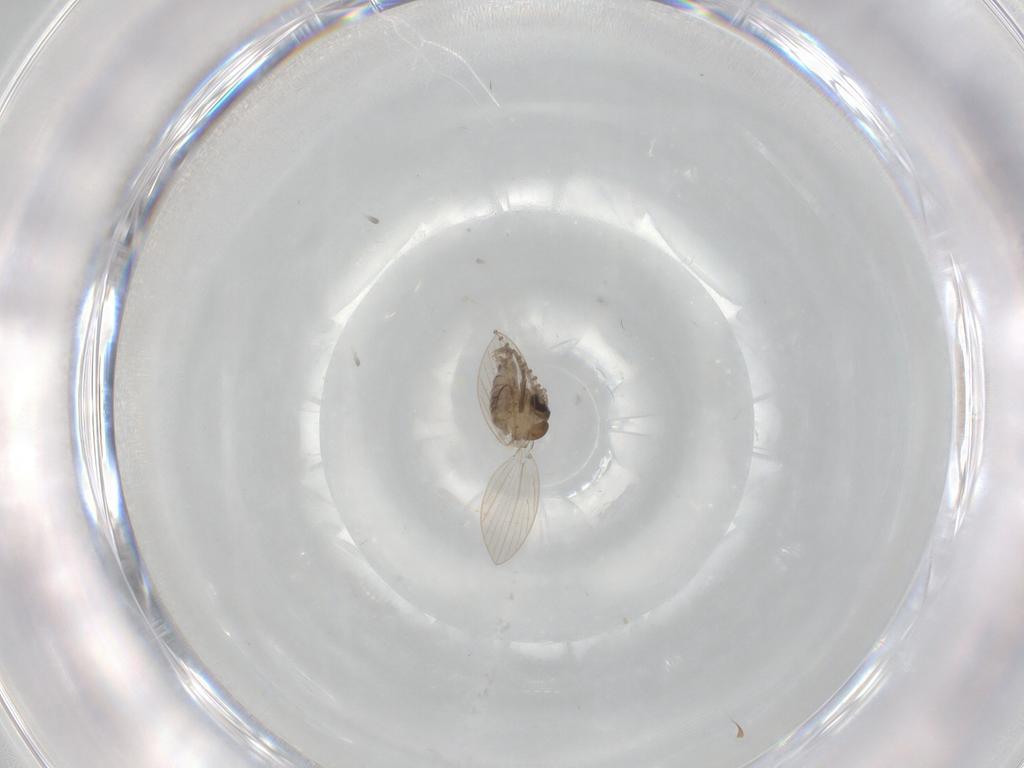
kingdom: Animalia
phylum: Arthropoda
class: Insecta
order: Diptera
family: Psychodidae
